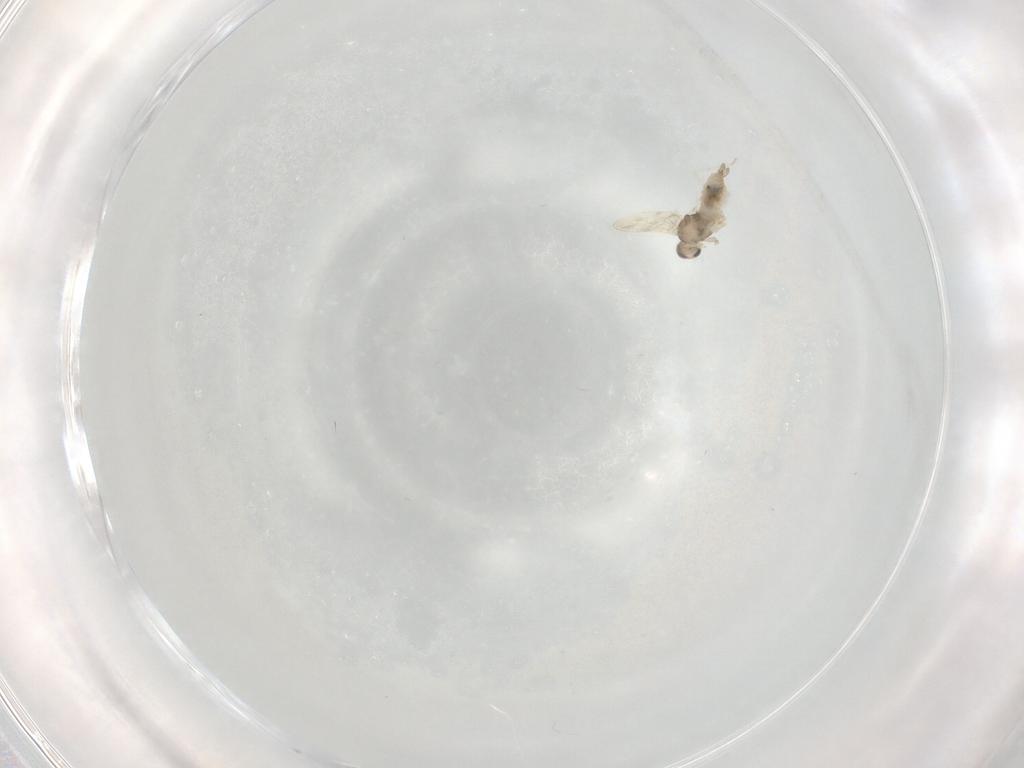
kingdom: Animalia
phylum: Arthropoda
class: Insecta
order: Diptera
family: Cecidomyiidae
